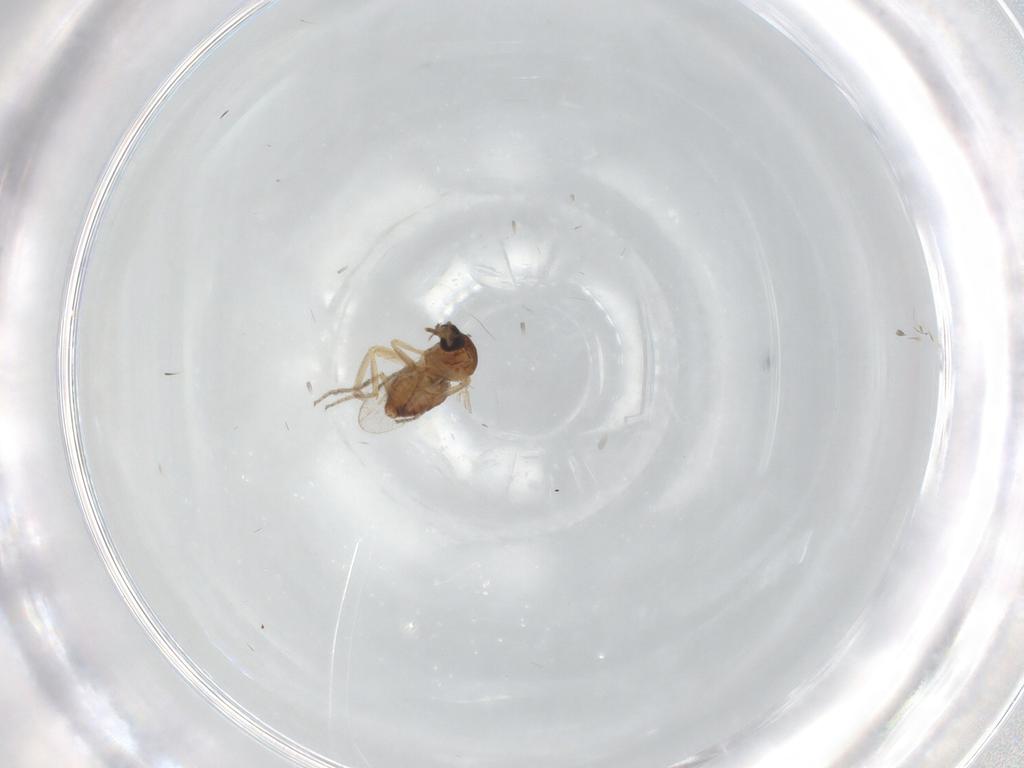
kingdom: Animalia
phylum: Arthropoda
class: Insecta
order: Diptera
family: Ceratopogonidae
